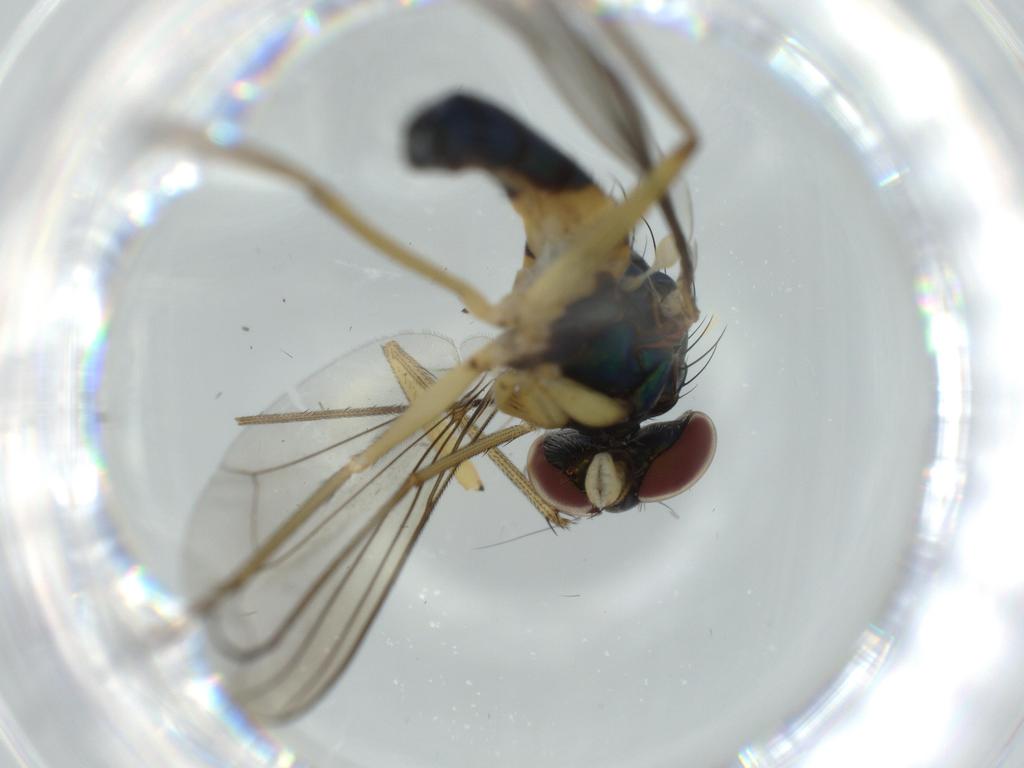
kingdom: Animalia
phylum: Arthropoda
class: Insecta
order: Diptera
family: Dolichopodidae
